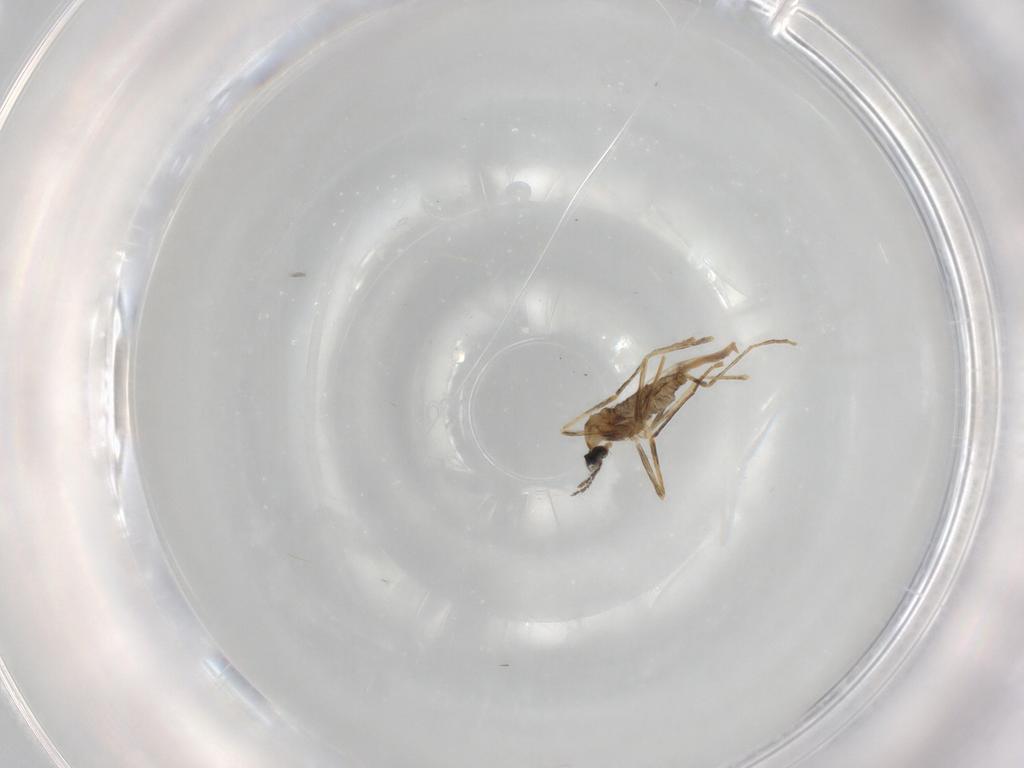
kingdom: Animalia
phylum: Arthropoda
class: Insecta
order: Diptera
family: Cecidomyiidae
